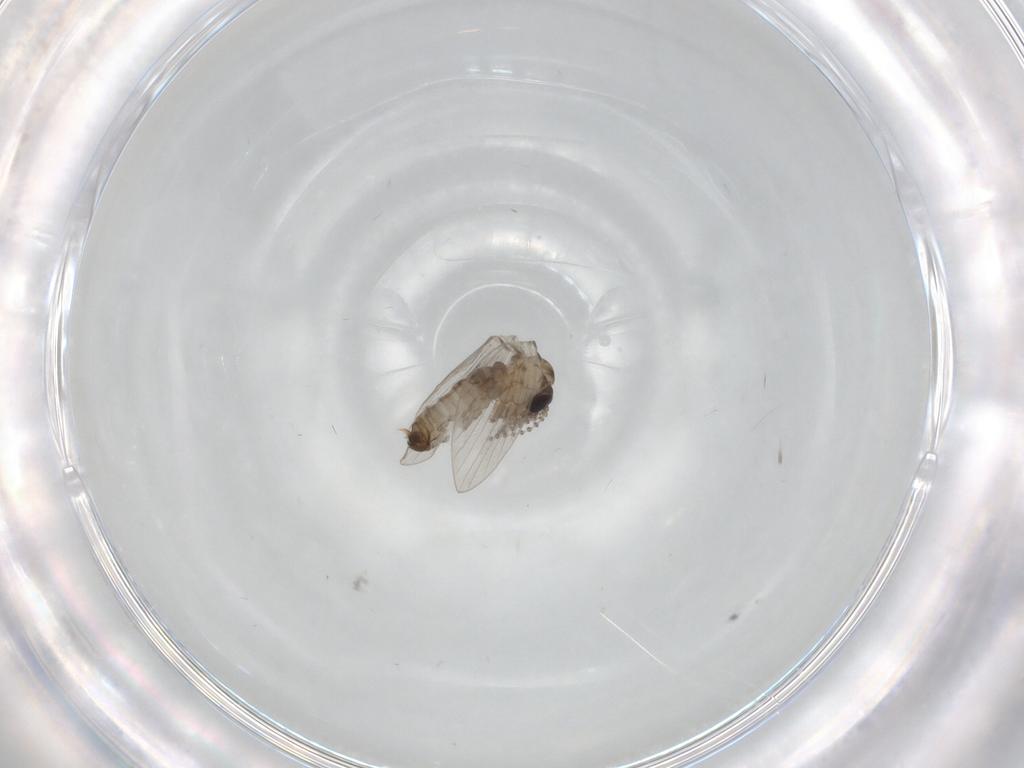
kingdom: Animalia
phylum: Arthropoda
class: Insecta
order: Diptera
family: Drosophilidae
